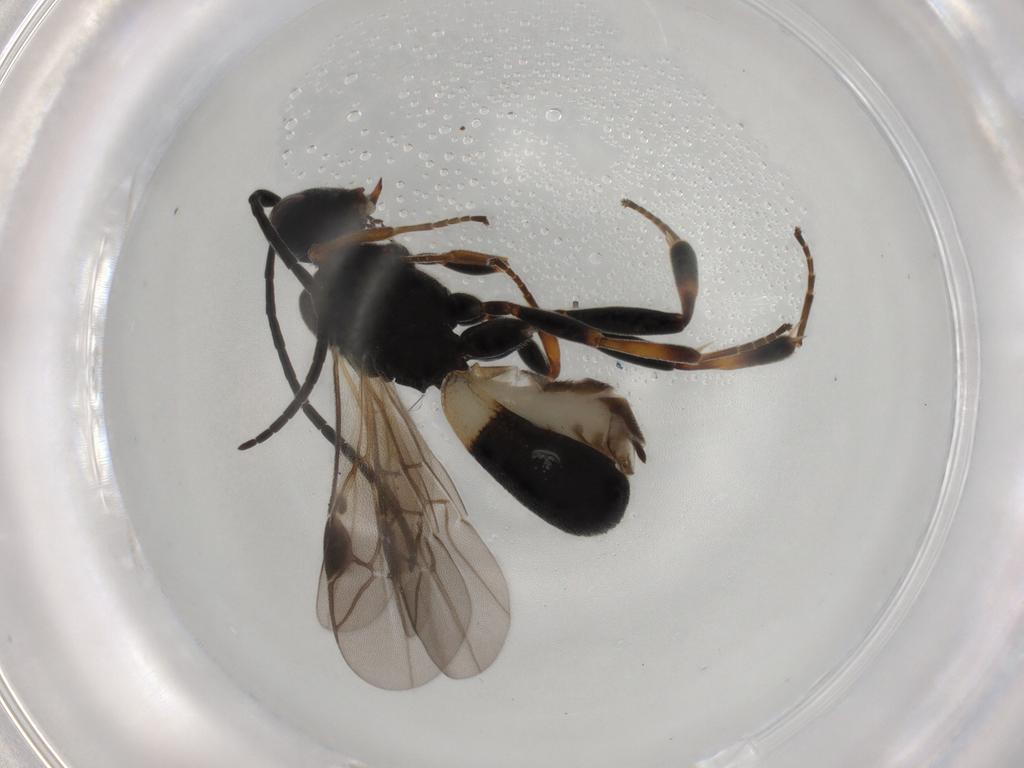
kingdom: Animalia
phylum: Arthropoda
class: Insecta
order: Hymenoptera
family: Braconidae
